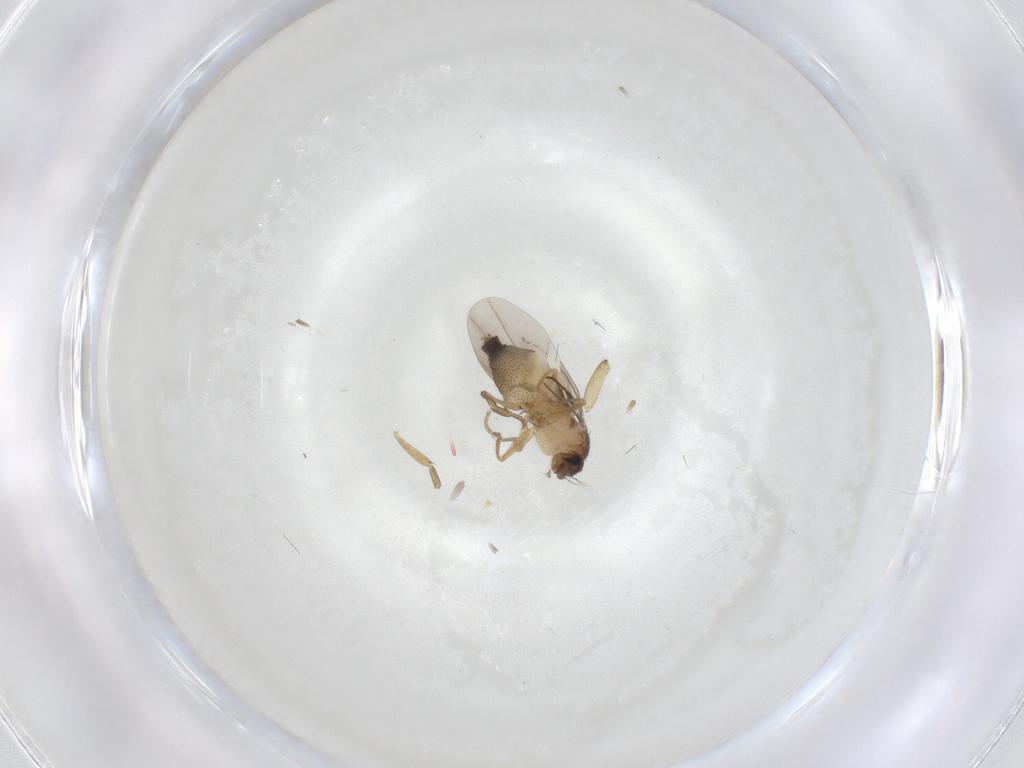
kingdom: Animalia
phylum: Arthropoda
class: Insecta
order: Diptera
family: Phoridae
